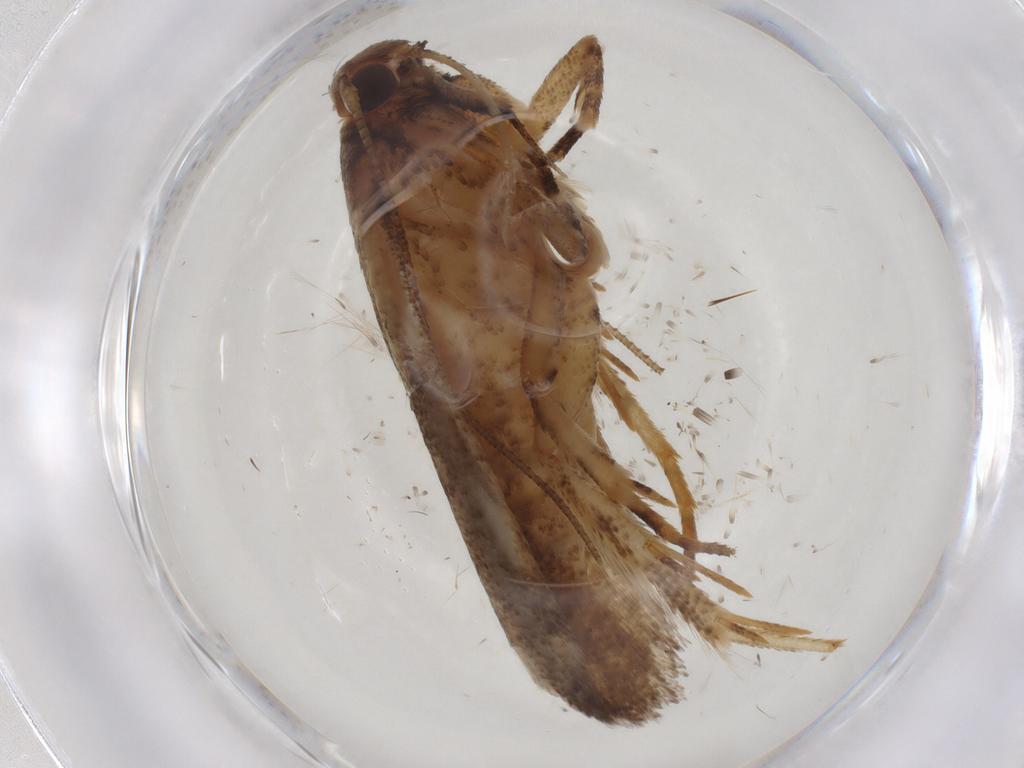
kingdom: Animalia
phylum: Arthropoda
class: Insecta
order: Lepidoptera
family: Gelechiidae
